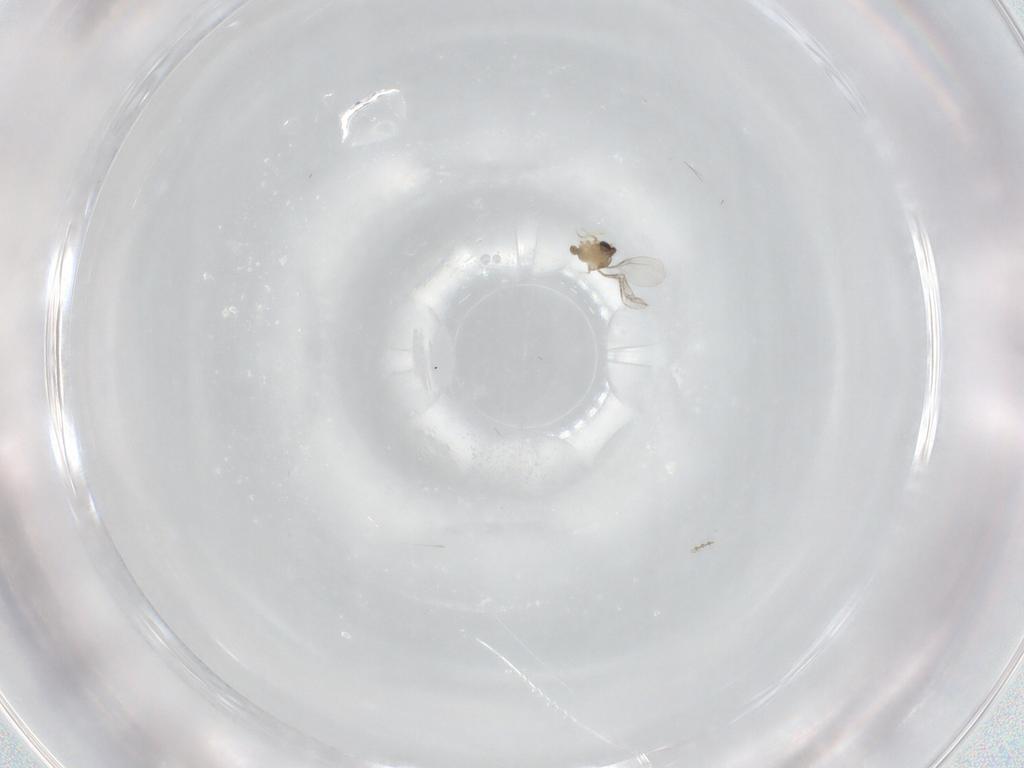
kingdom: Animalia
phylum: Arthropoda
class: Insecta
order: Diptera
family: Cecidomyiidae
